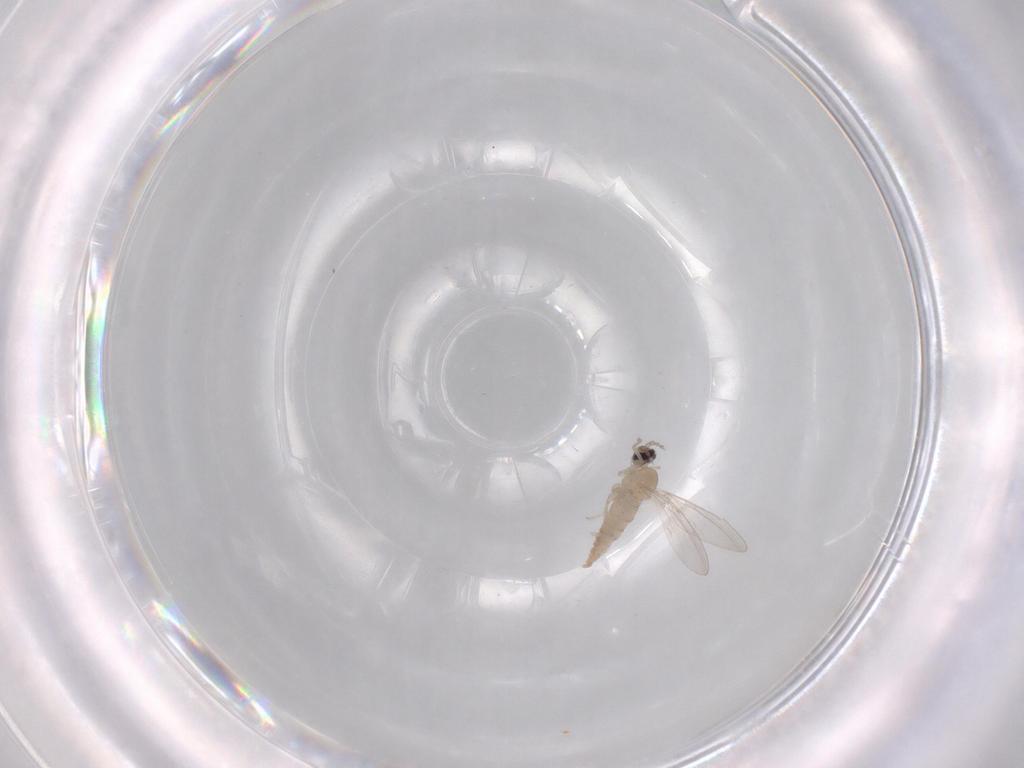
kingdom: Animalia
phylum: Arthropoda
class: Insecta
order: Diptera
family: Cecidomyiidae
